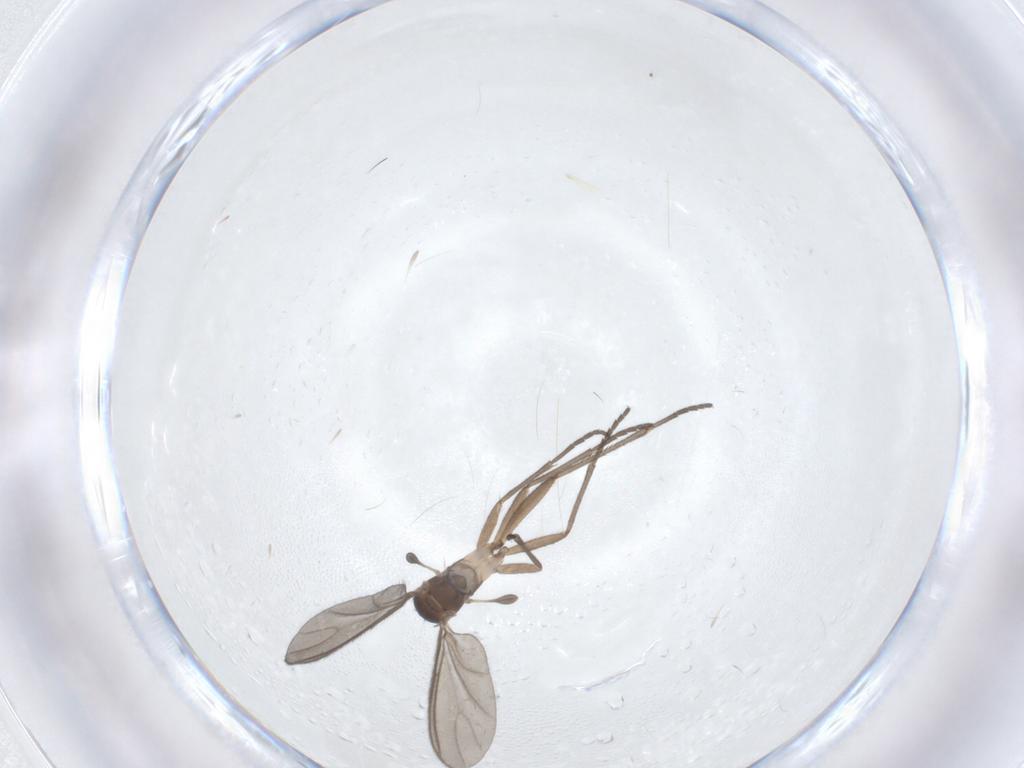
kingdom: Animalia
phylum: Arthropoda
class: Insecta
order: Diptera
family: Sciaridae
